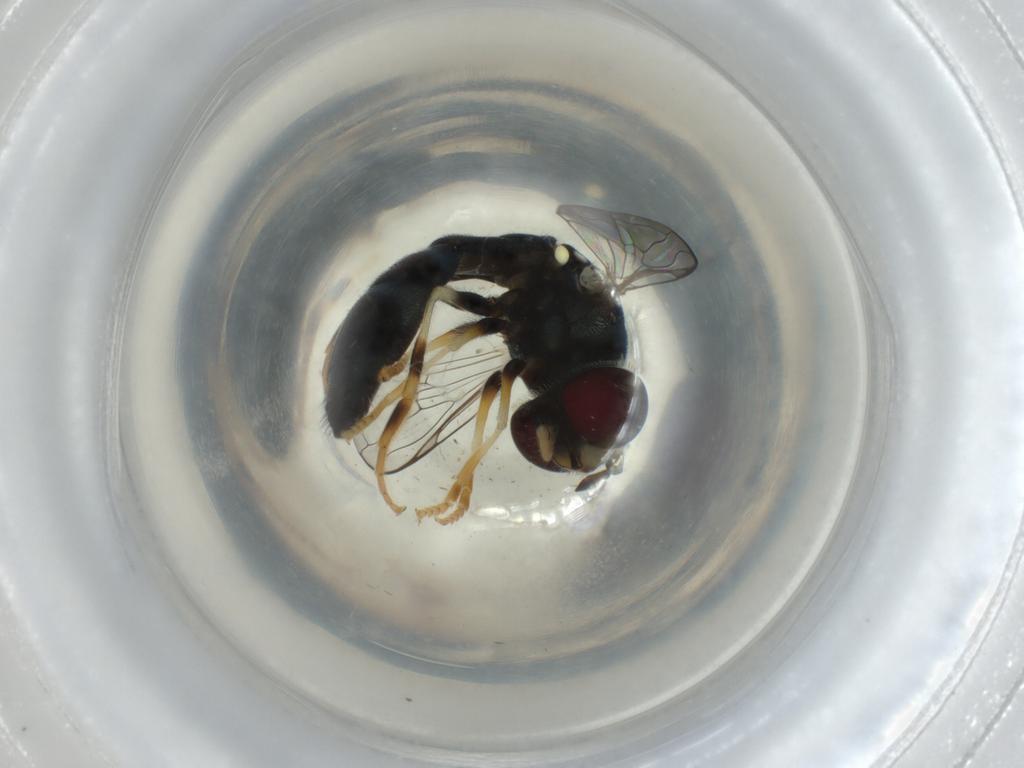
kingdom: Animalia
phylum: Arthropoda
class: Insecta
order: Diptera
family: Syrphidae
